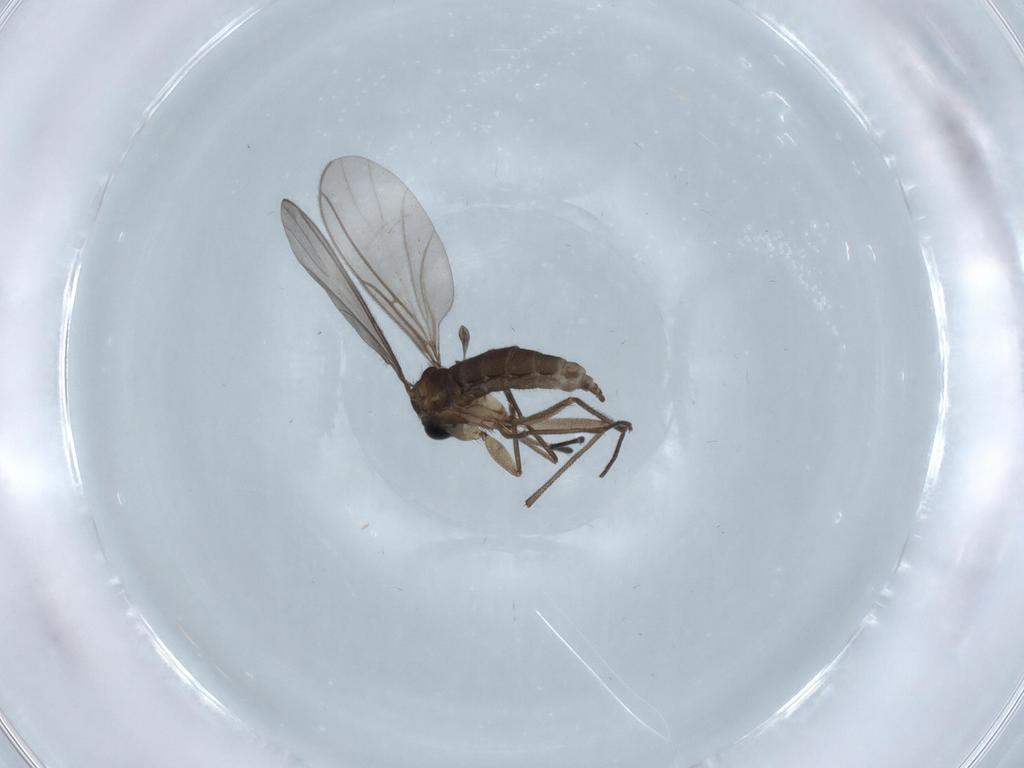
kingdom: Animalia
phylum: Arthropoda
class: Insecta
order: Diptera
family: Sciaridae
